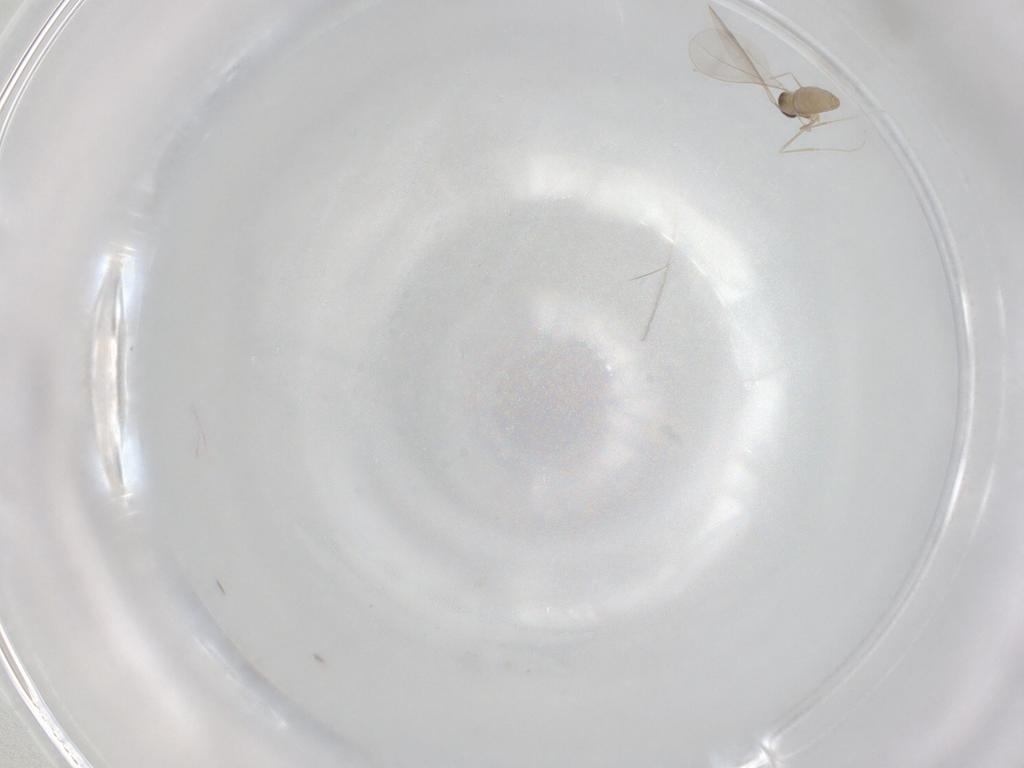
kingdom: Animalia
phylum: Arthropoda
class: Insecta
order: Diptera
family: Cecidomyiidae
